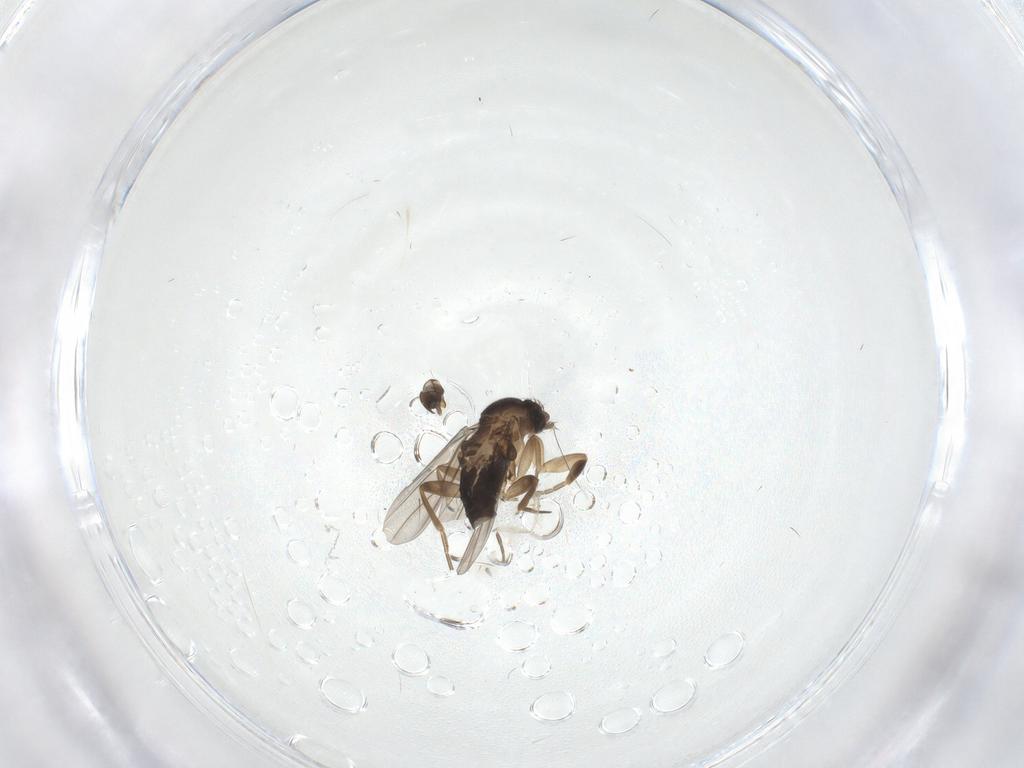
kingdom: Animalia
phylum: Arthropoda
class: Insecta
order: Diptera
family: Phoridae
